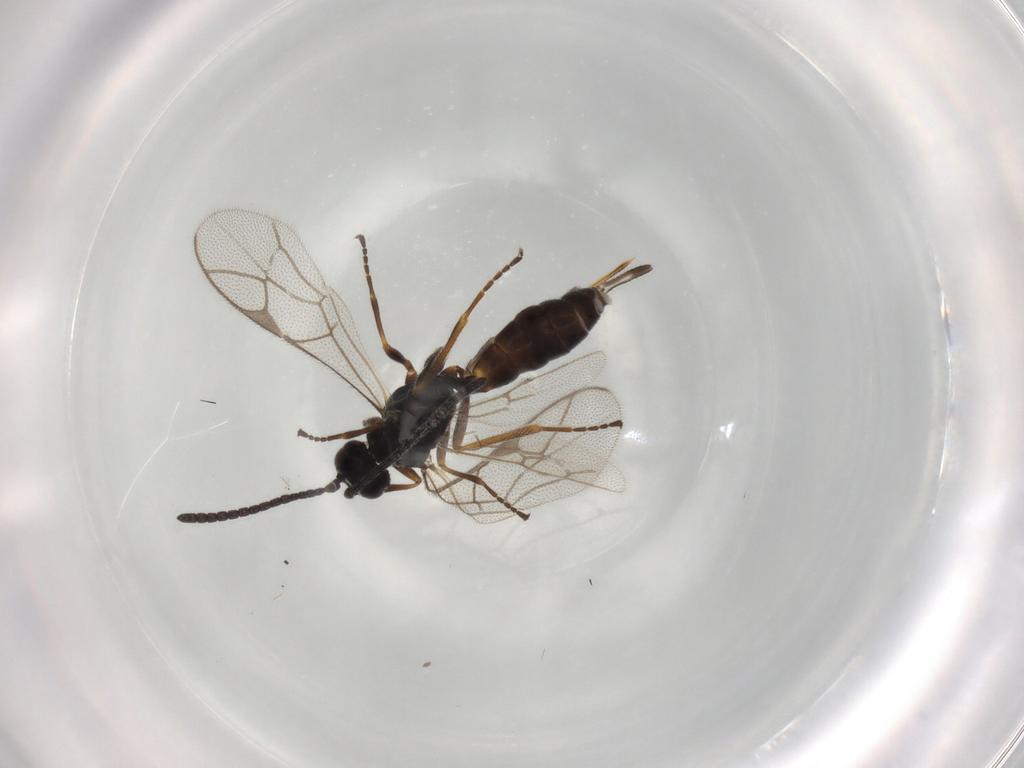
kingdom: Animalia
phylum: Arthropoda
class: Insecta
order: Hymenoptera
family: Ichneumonidae
